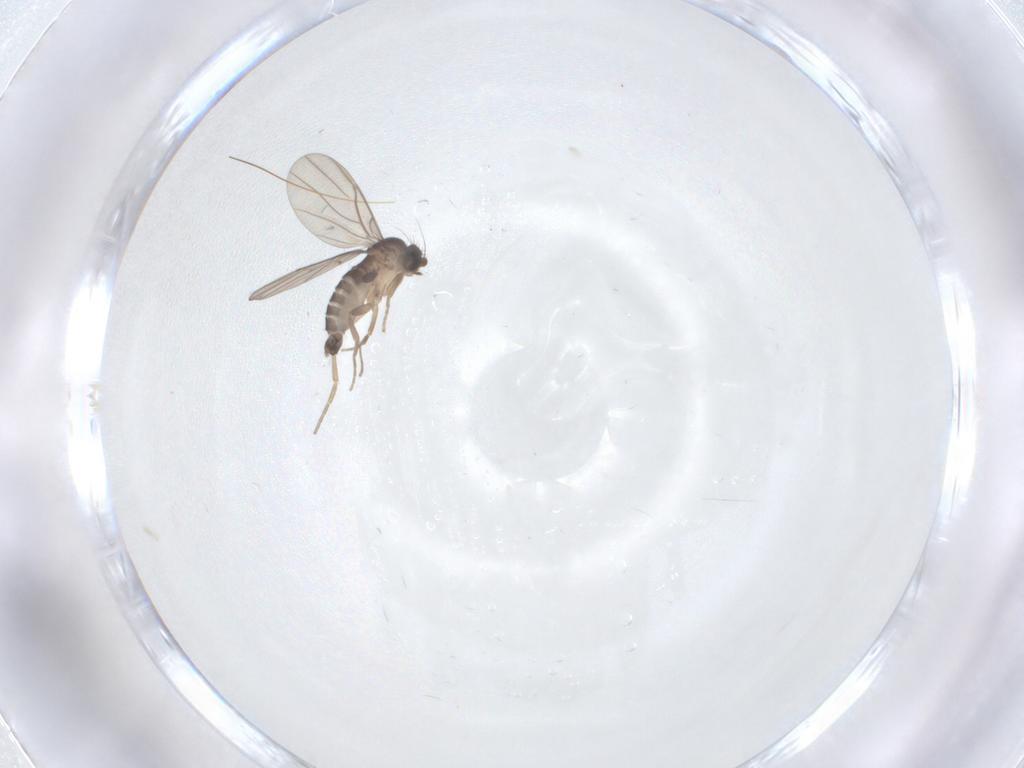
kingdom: Animalia
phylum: Arthropoda
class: Insecta
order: Diptera
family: Phoridae
